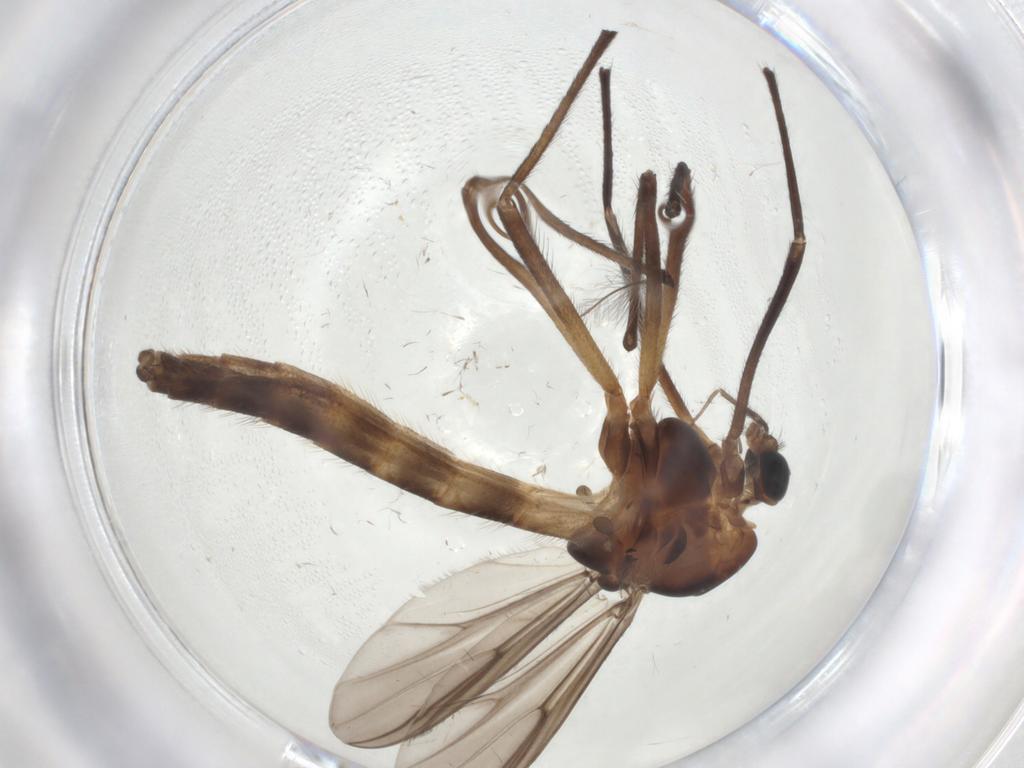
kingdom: Animalia
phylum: Arthropoda
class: Insecta
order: Diptera
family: Chironomidae
